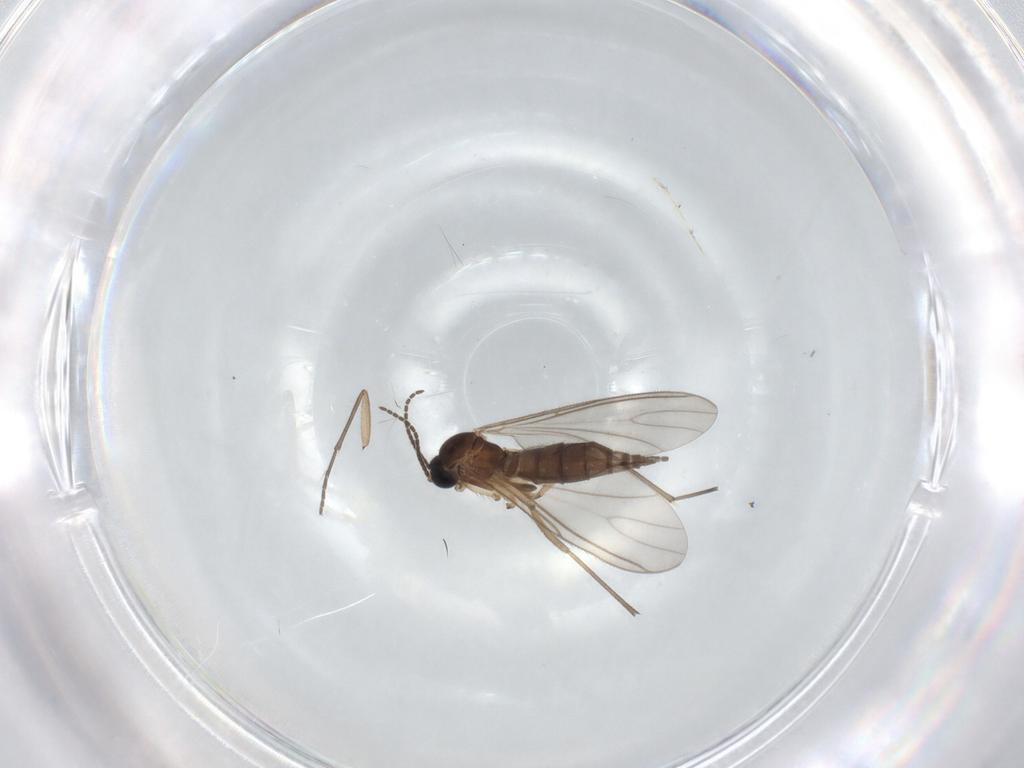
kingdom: Animalia
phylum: Arthropoda
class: Insecta
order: Diptera
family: Sciaridae
